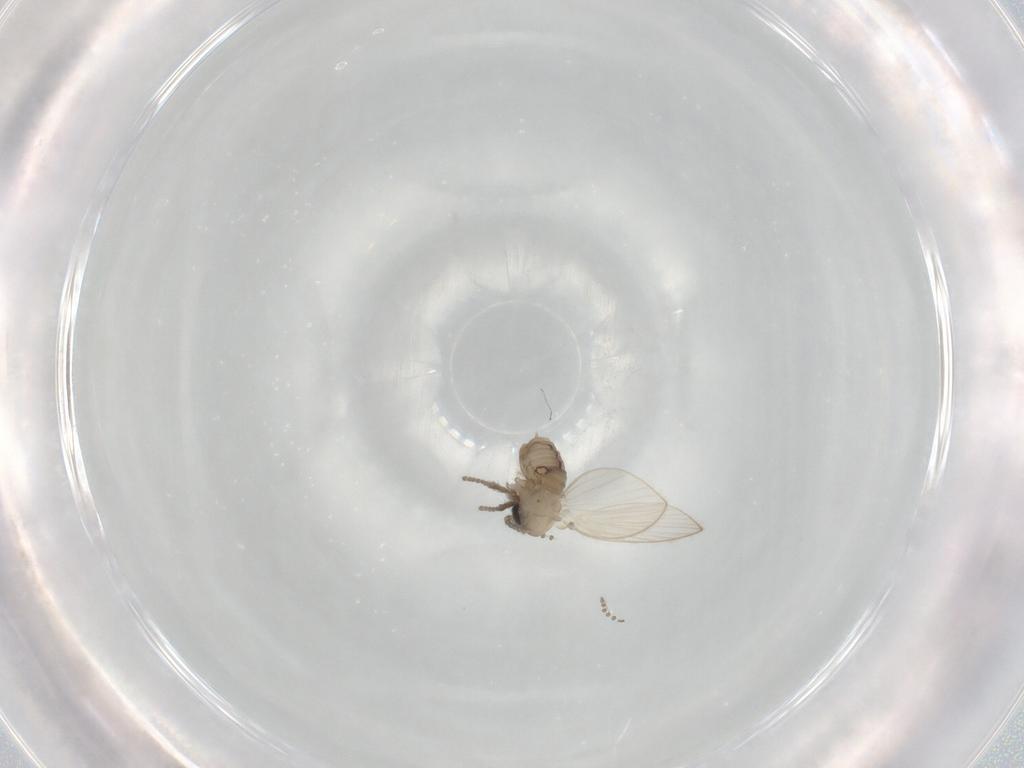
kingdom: Animalia
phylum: Arthropoda
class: Insecta
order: Diptera
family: Psychodidae
